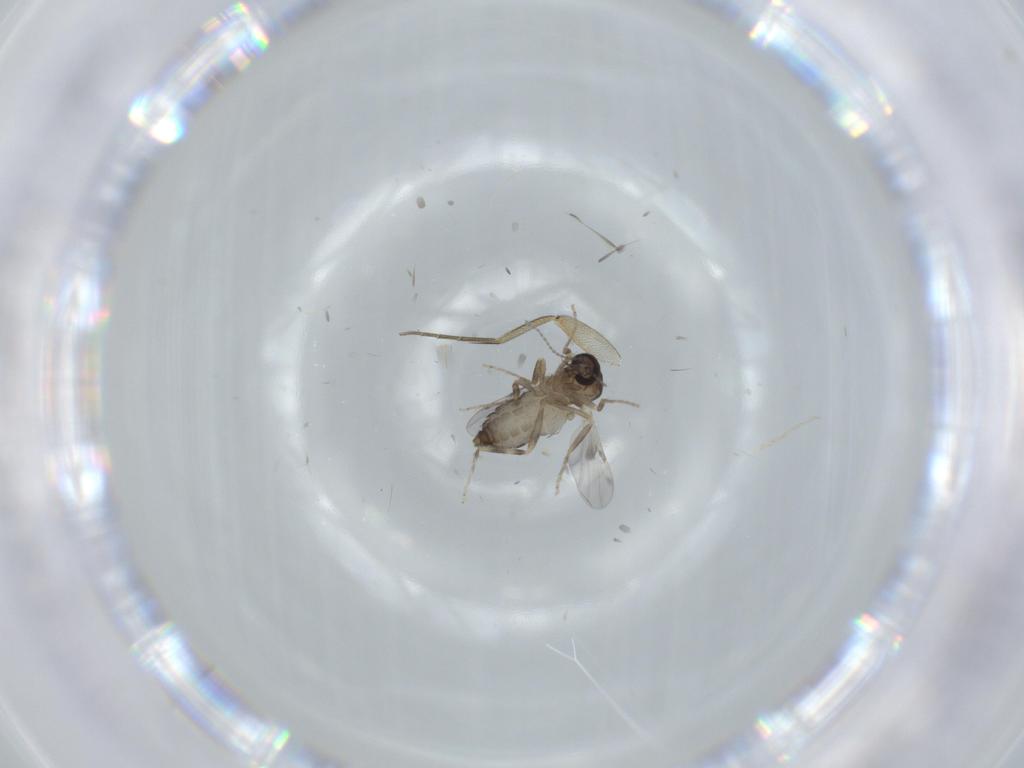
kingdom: Animalia
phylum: Arthropoda
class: Insecta
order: Diptera
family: Ceratopogonidae
